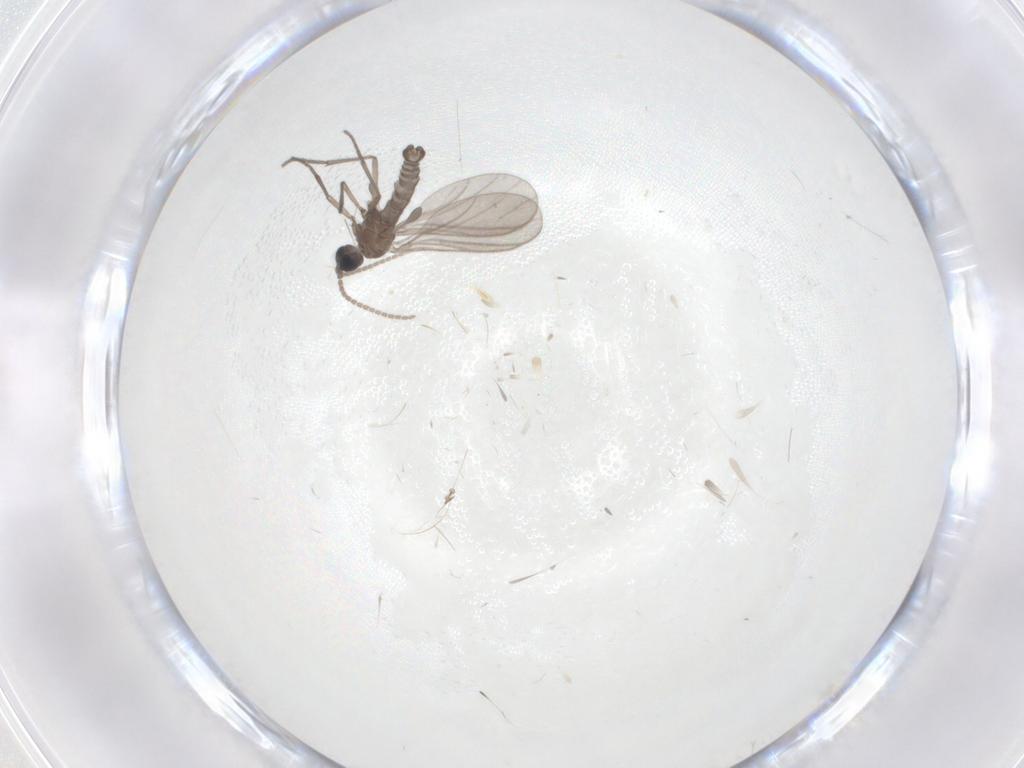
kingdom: Animalia
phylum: Arthropoda
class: Insecta
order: Diptera
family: Sciaridae
